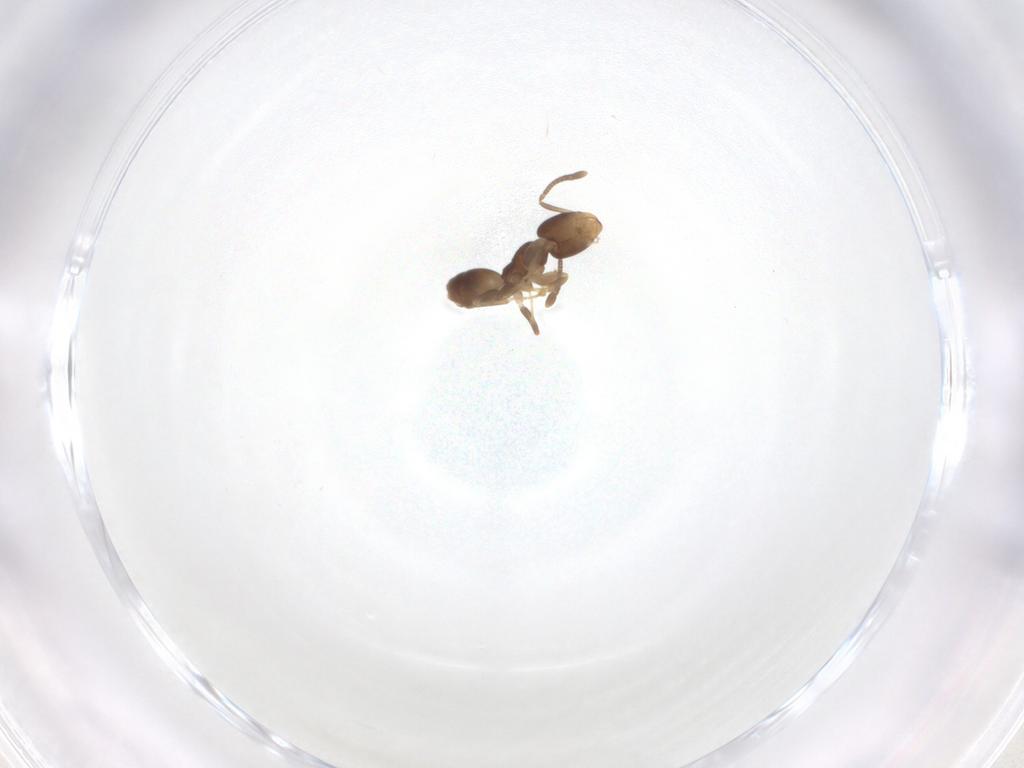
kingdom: Animalia
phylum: Arthropoda
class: Insecta
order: Hymenoptera
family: Formicidae
